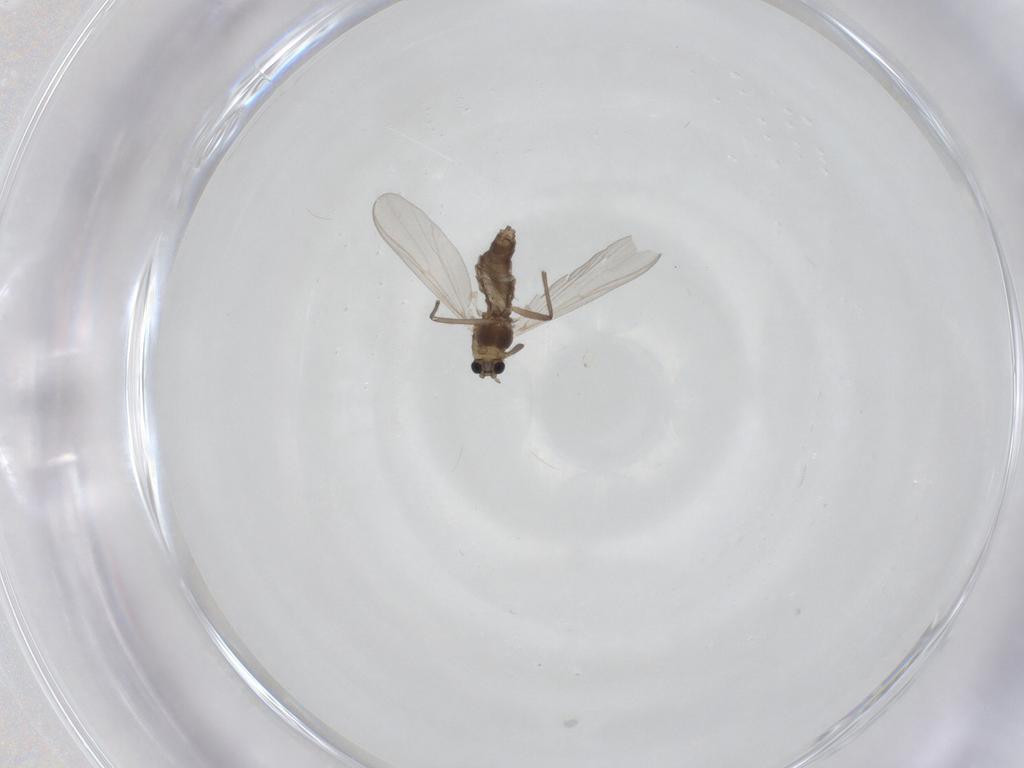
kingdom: Animalia
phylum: Arthropoda
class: Insecta
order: Diptera
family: Chironomidae
